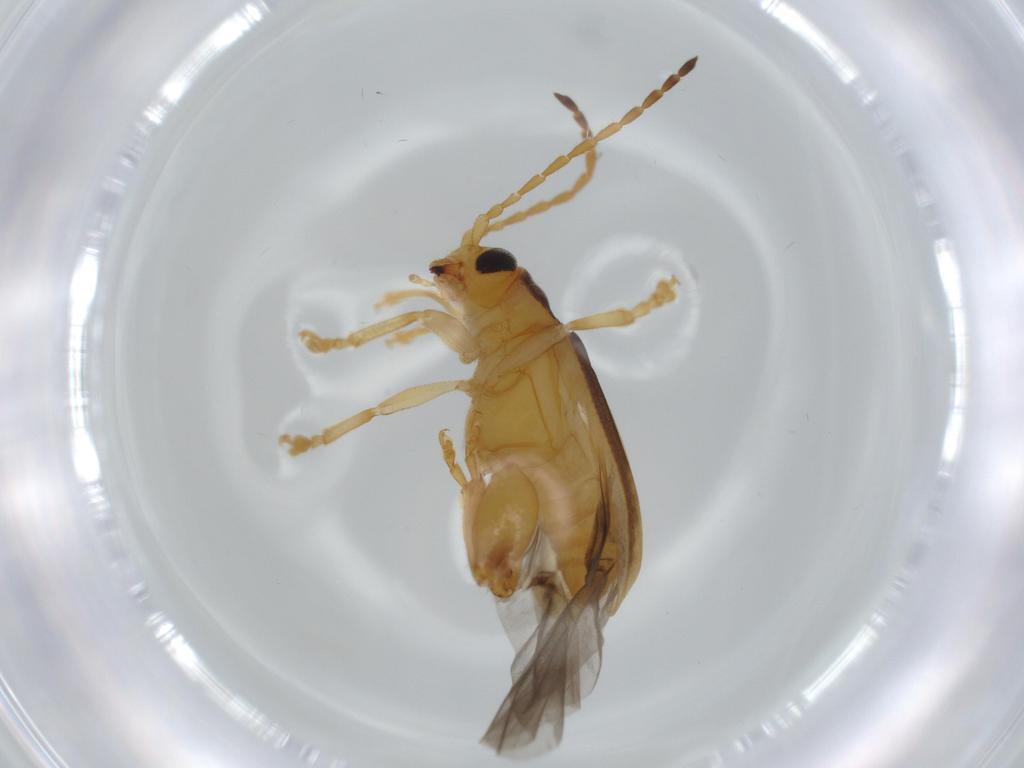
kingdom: Animalia
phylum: Arthropoda
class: Insecta
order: Coleoptera
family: Chrysomelidae
